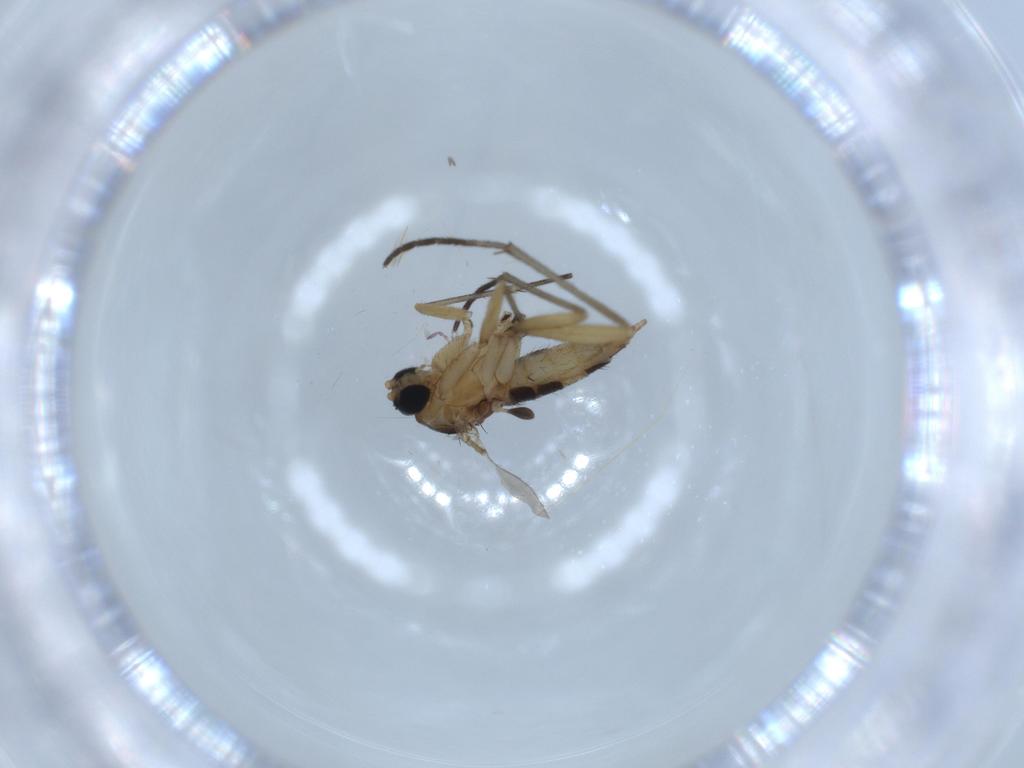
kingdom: Animalia
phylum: Arthropoda
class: Insecta
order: Diptera
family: Sciaridae
